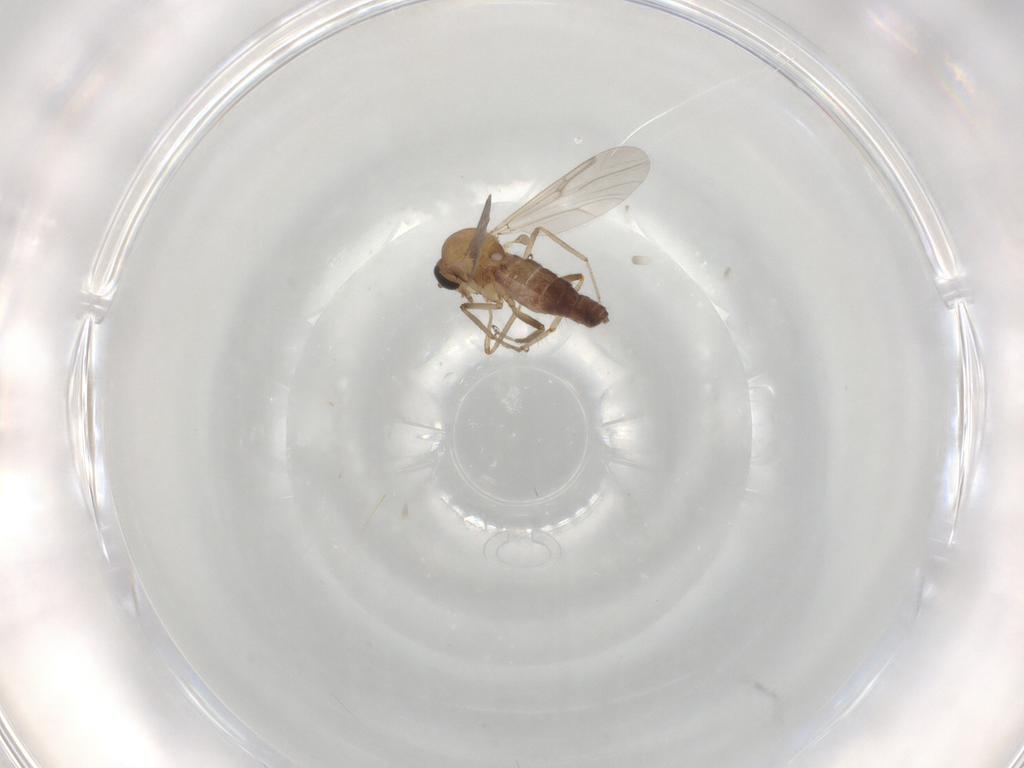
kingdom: Animalia
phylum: Arthropoda
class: Insecta
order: Diptera
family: Ceratopogonidae
